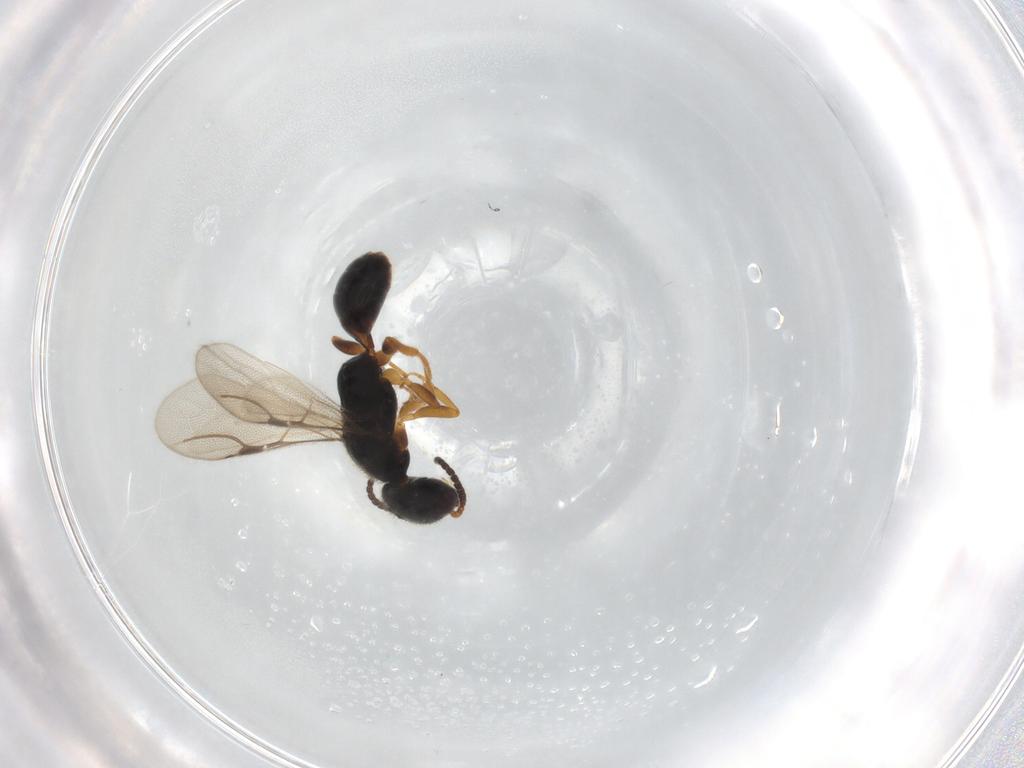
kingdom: Animalia
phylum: Arthropoda
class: Insecta
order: Hymenoptera
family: Bethylidae
